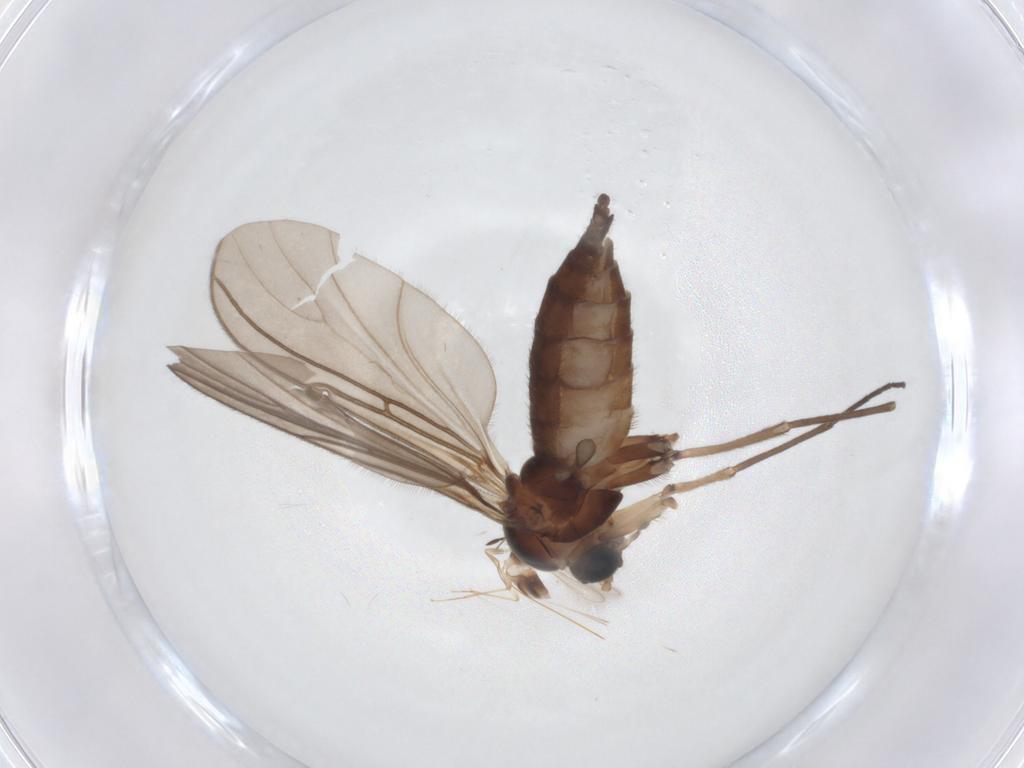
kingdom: Animalia
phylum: Arthropoda
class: Insecta
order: Diptera
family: Sciaridae
